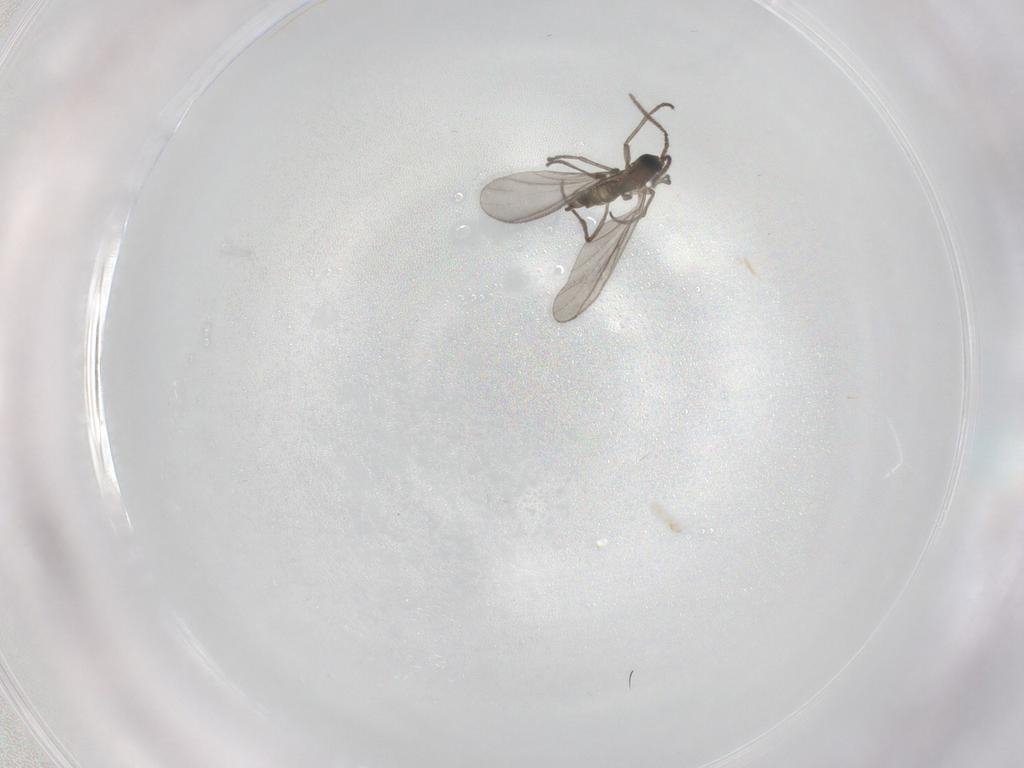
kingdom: Animalia
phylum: Arthropoda
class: Insecta
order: Diptera
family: Sciaridae
